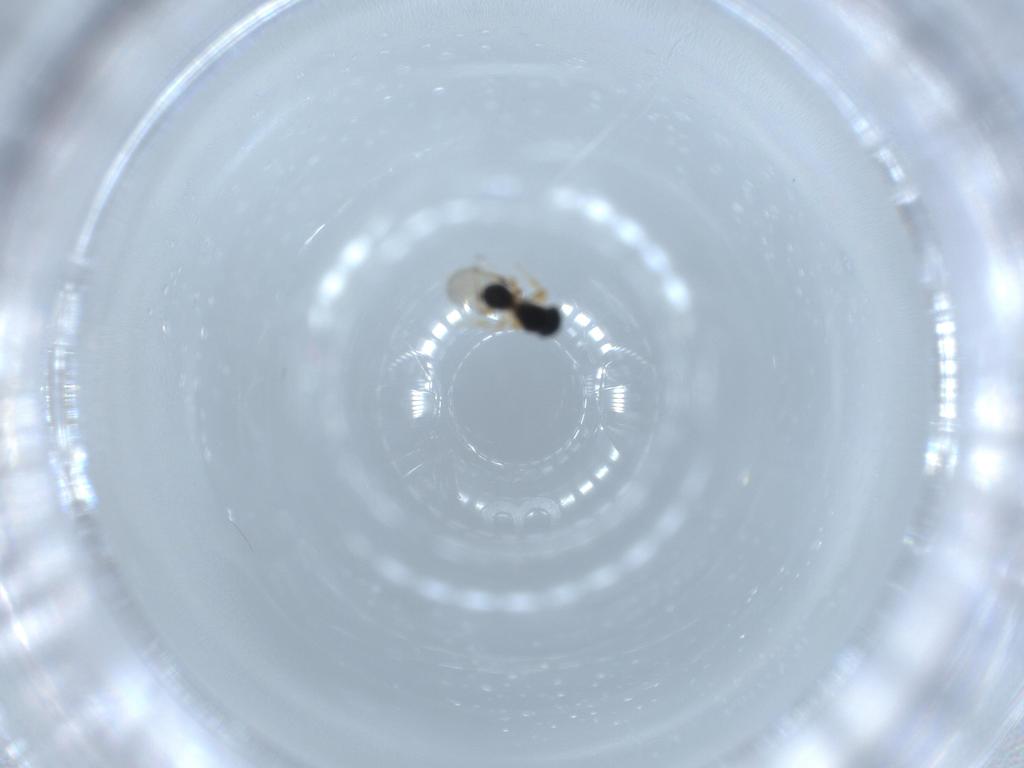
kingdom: Animalia
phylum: Arthropoda
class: Insecta
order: Hymenoptera
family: Platygastridae
